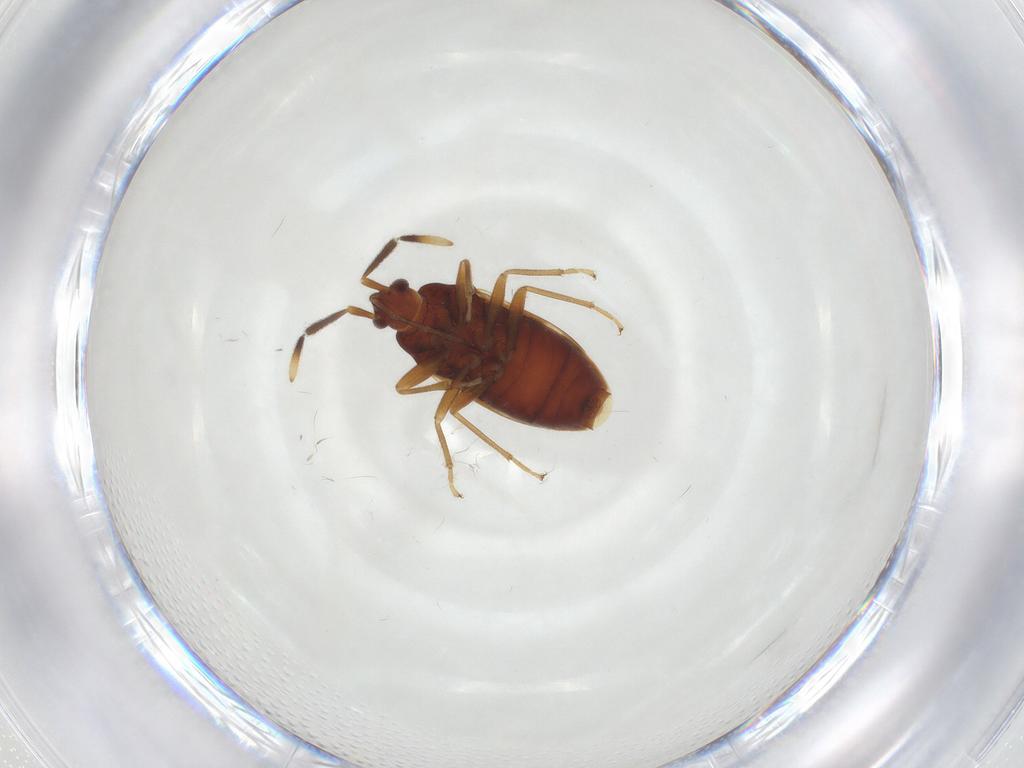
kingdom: Animalia
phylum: Arthropoda
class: Insecta
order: Hemiptera
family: Rhyparochromidae
